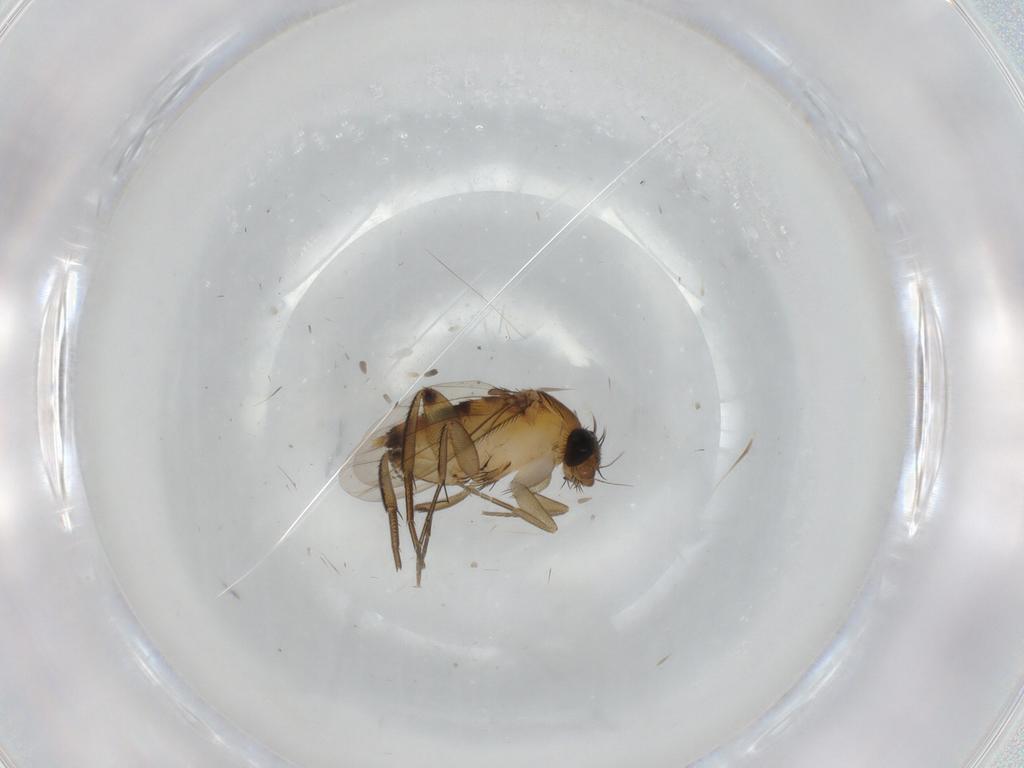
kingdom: Animalia
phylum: Arthropoda
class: Insecta
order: Diptera
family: Phoridae
